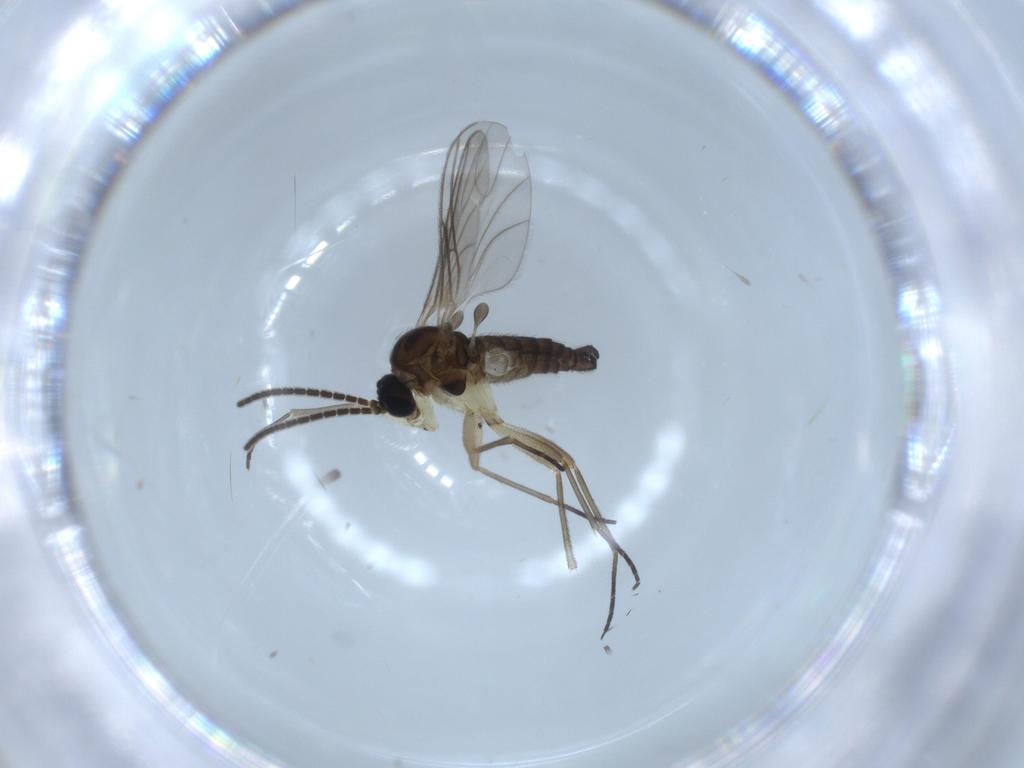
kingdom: Animalia
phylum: Arthropoda
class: Insecta
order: Diptera
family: Cecidomyiidae
